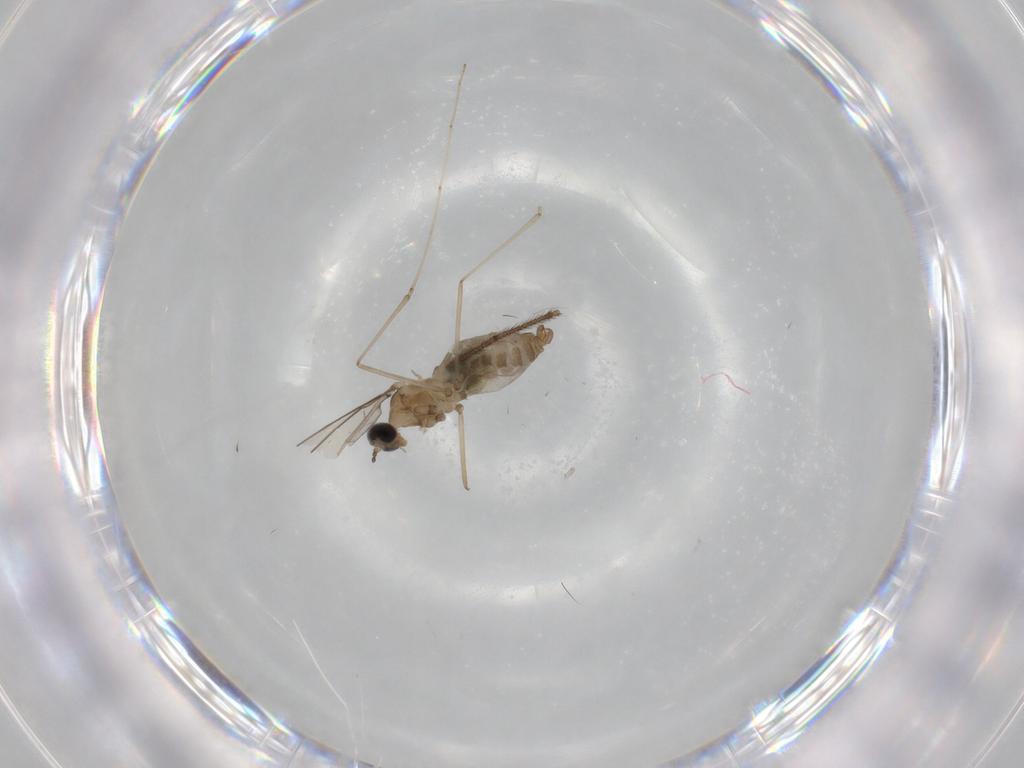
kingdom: Animalia
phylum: Arthropoda
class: Insecta
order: Diptera
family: Cecidomyiidae
